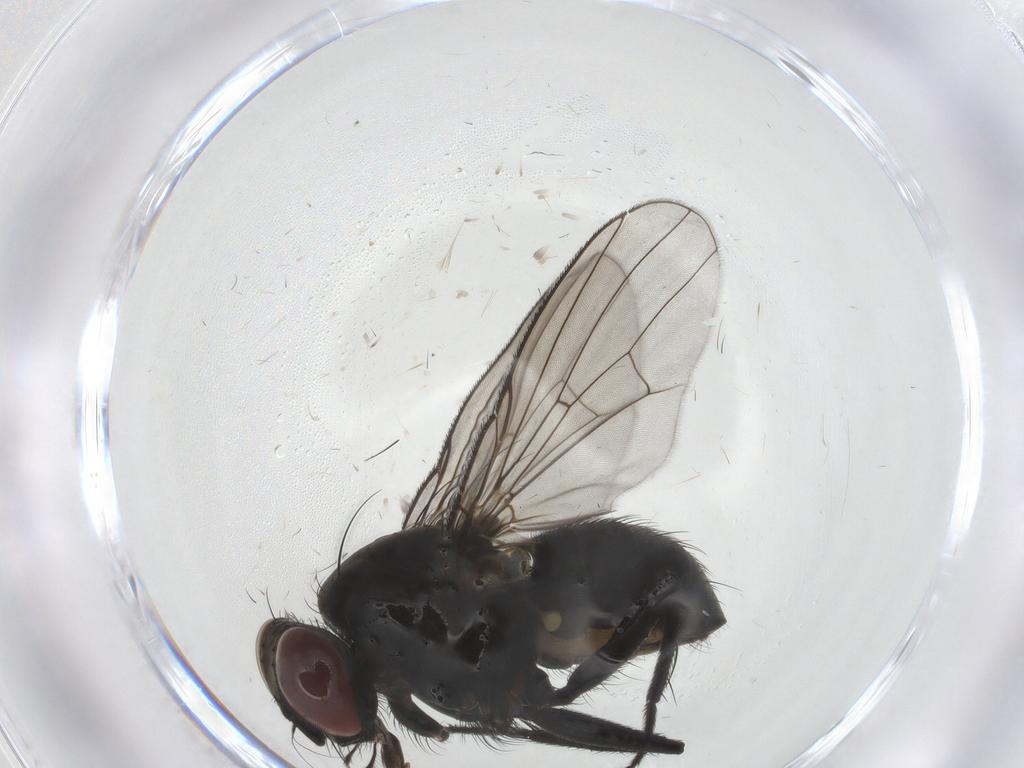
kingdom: Animalia
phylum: Arthropoda
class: Insecta
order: Diptera
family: Muscidae
